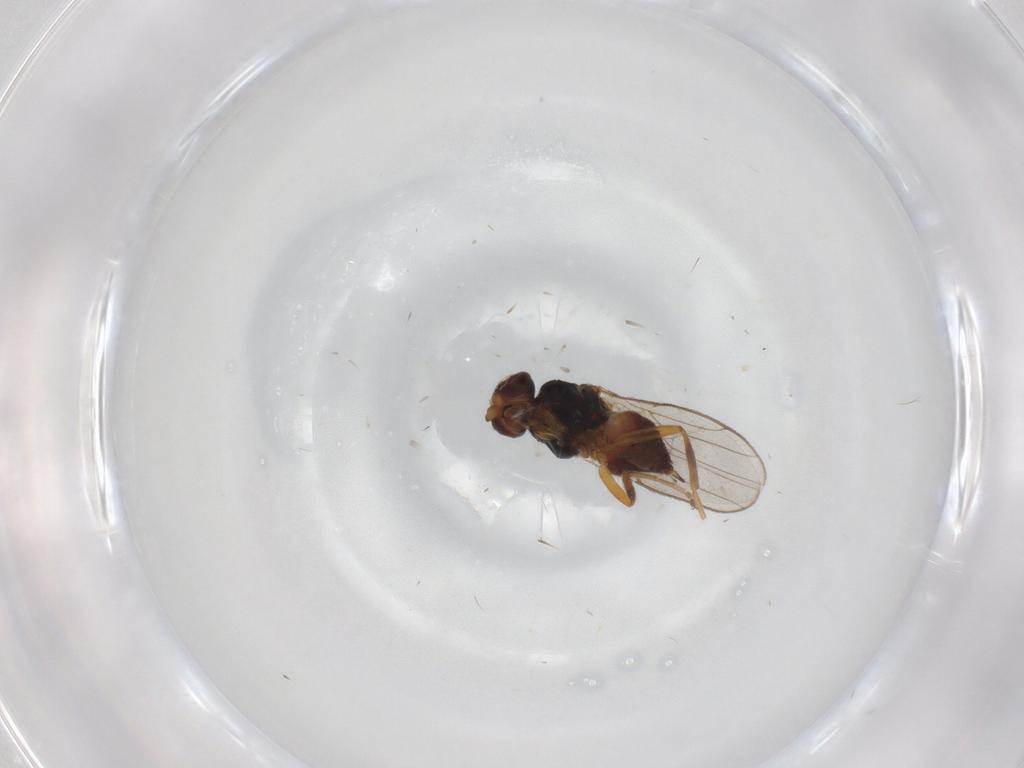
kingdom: Animalia
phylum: Arthropoda
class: Insecta
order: Diptera
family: Chloropidae
